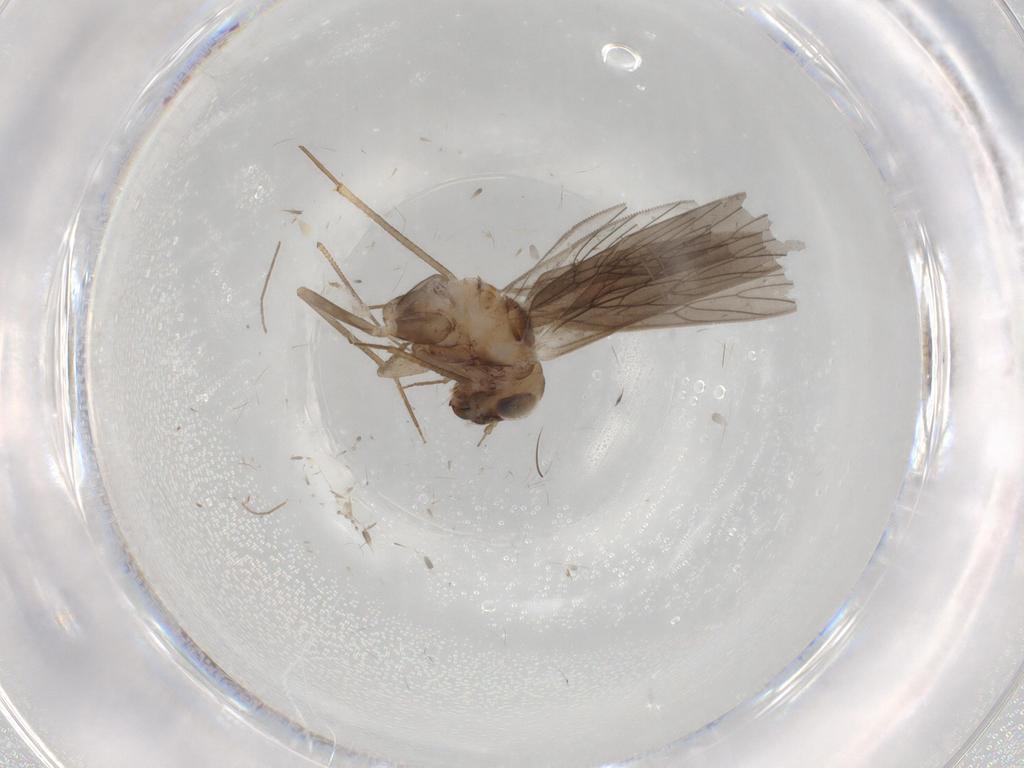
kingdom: Animalia
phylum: Arthropoda
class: Insecta
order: Psocodea
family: Lepidopsocidae
